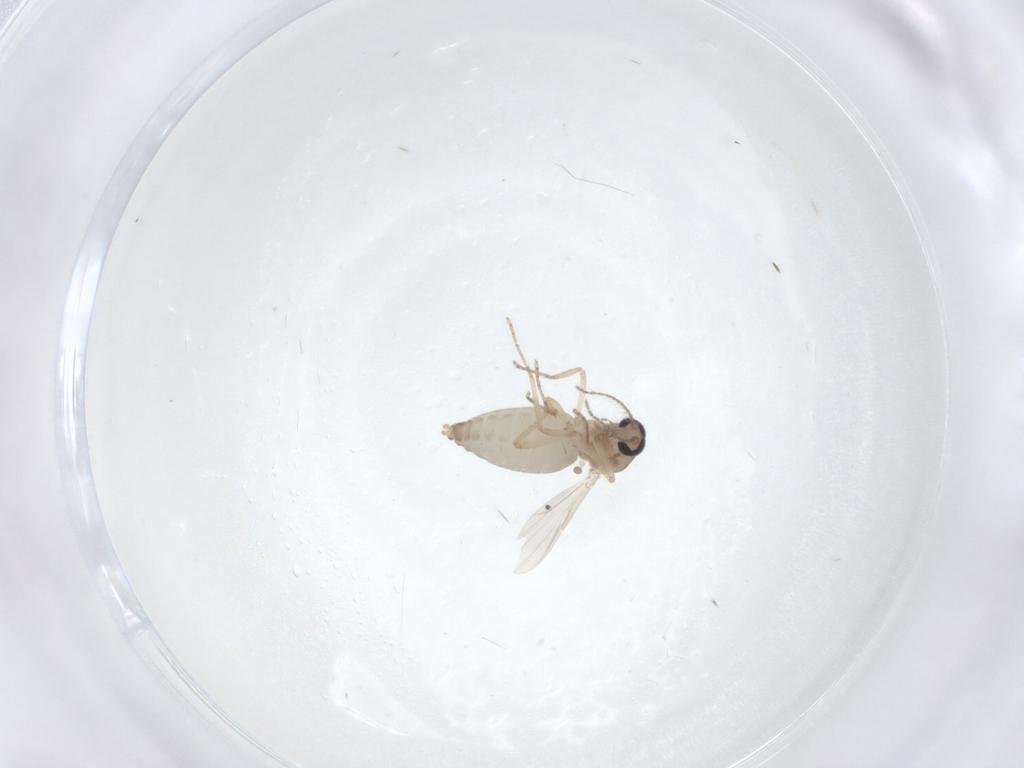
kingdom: Animalia
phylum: Arthropoda
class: Insecta
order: Diptera
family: Ceratopogonidae
